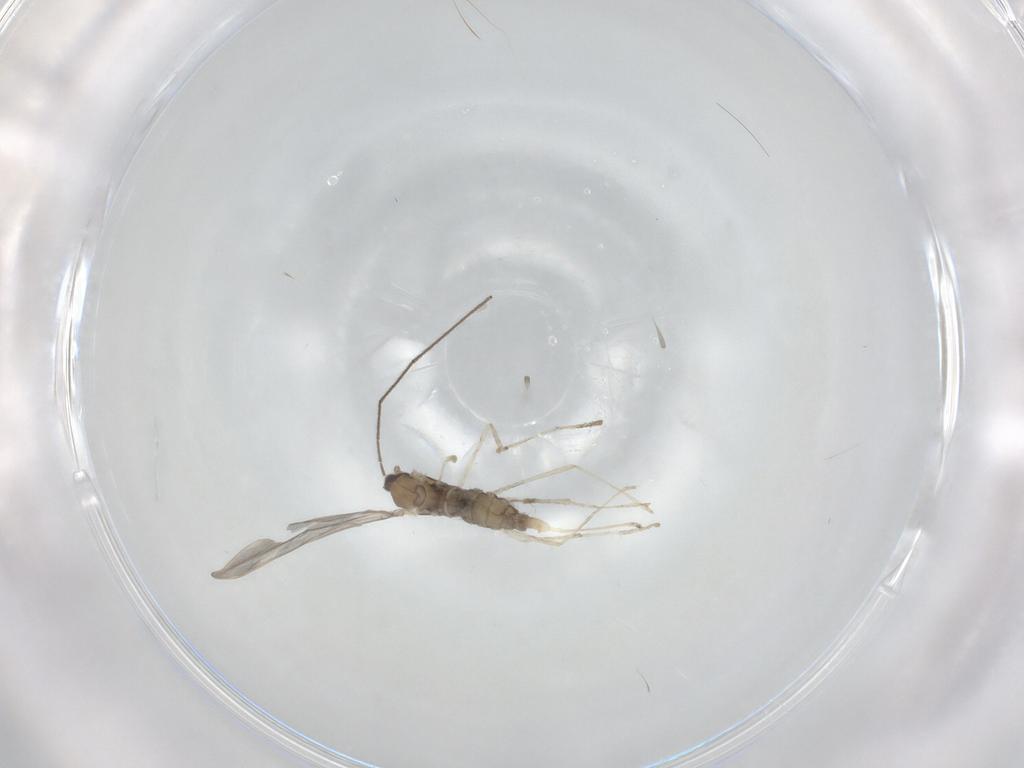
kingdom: Animalia
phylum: Arthropoda
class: Insecta
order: Diptera
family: Cecidomyiidae
